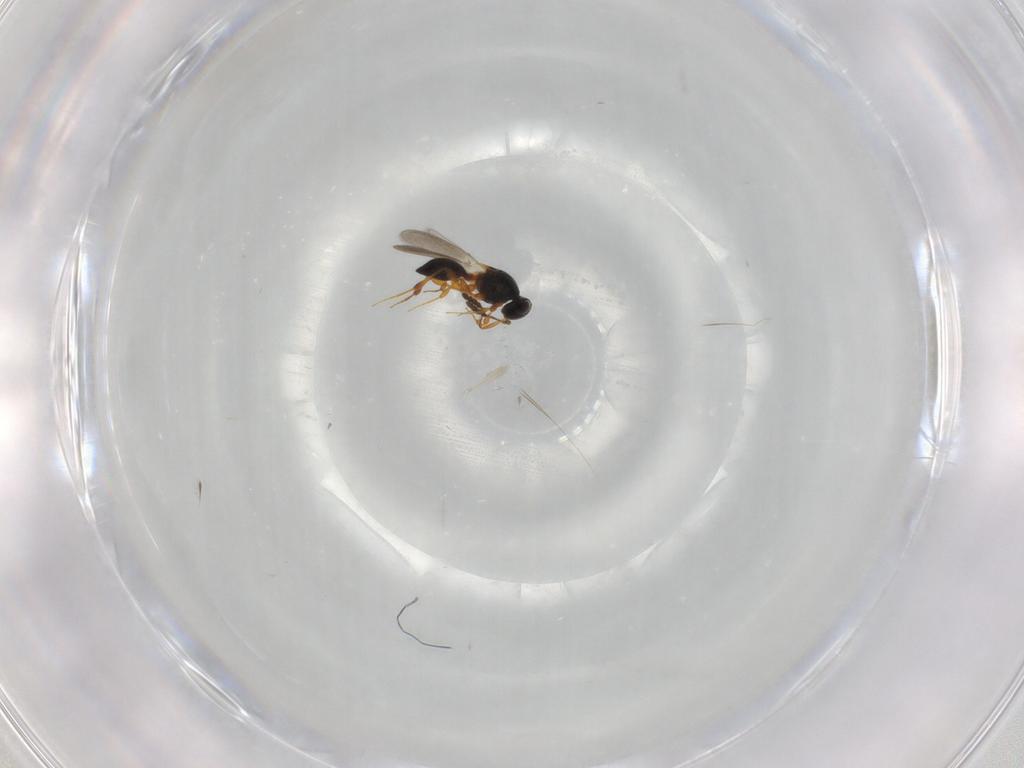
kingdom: Animalia
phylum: Arthropoda
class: Insecta
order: Hymenoptera
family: Platygastridae
